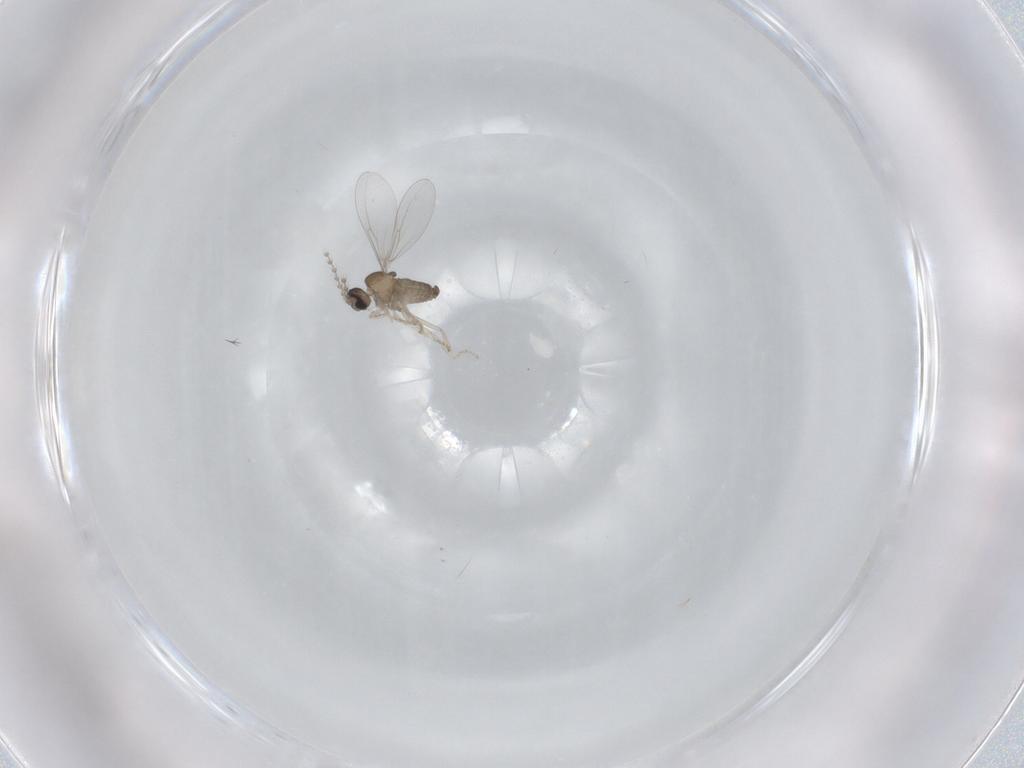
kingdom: Animalia
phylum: Arthropoda
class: Insecta
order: Diptera
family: Cecidomyiidae
